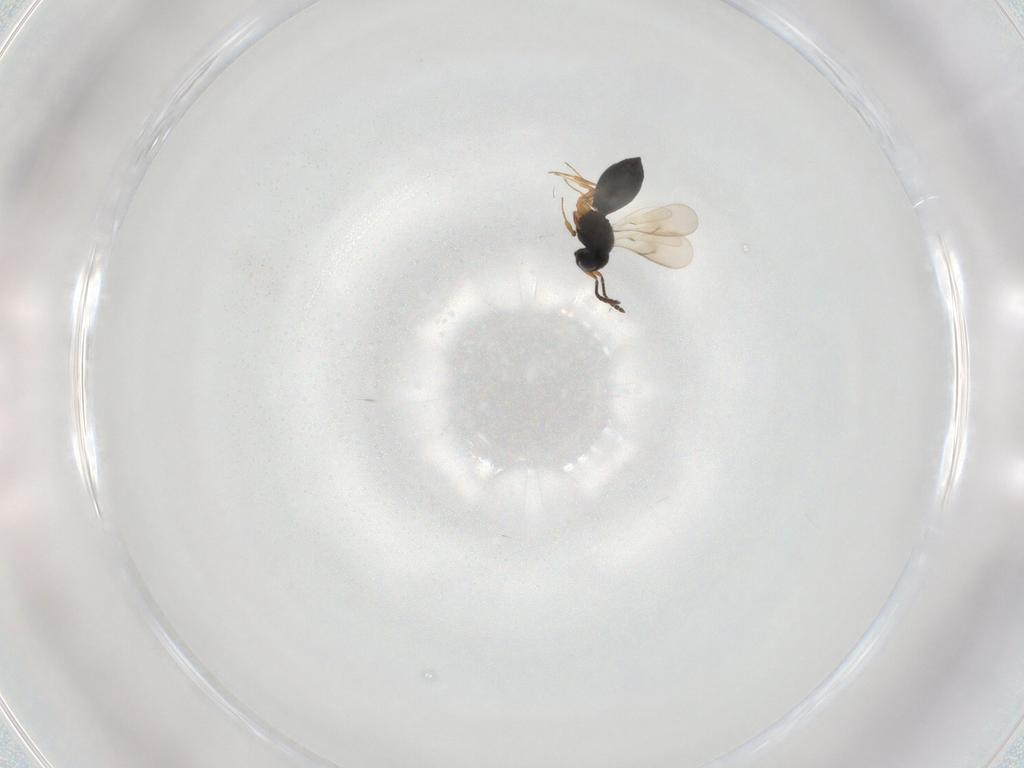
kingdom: Animalia
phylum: Arthropoda
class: Insecta
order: Hymenoptera
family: Scelionidae
